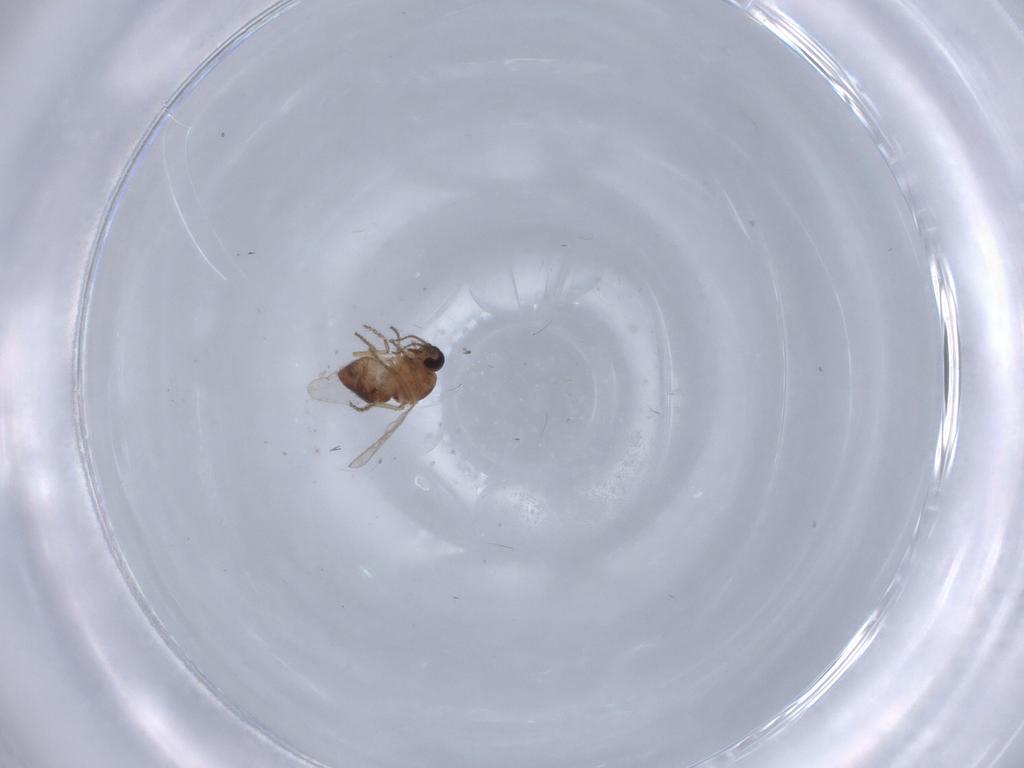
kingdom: Animalia
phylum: Arthropoda
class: Insecta
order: Diptera
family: Ceratopogonidae
